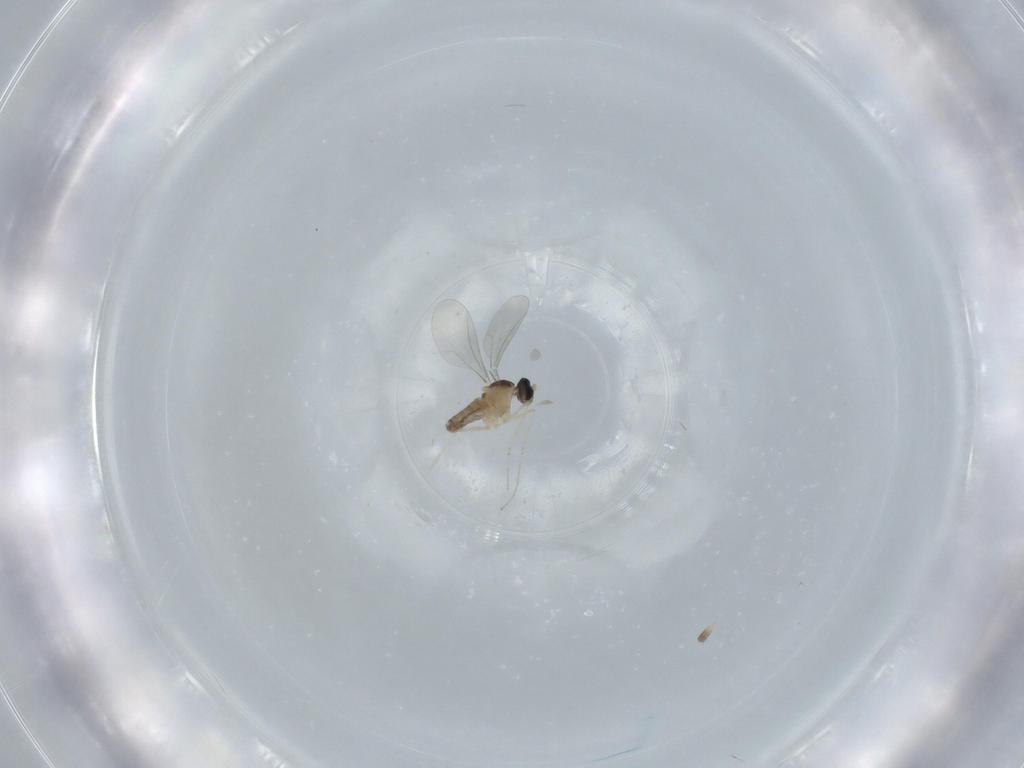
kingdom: Animalia
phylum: Arthropoda
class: Insecta
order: Diptera
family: Cecidomyiidae
